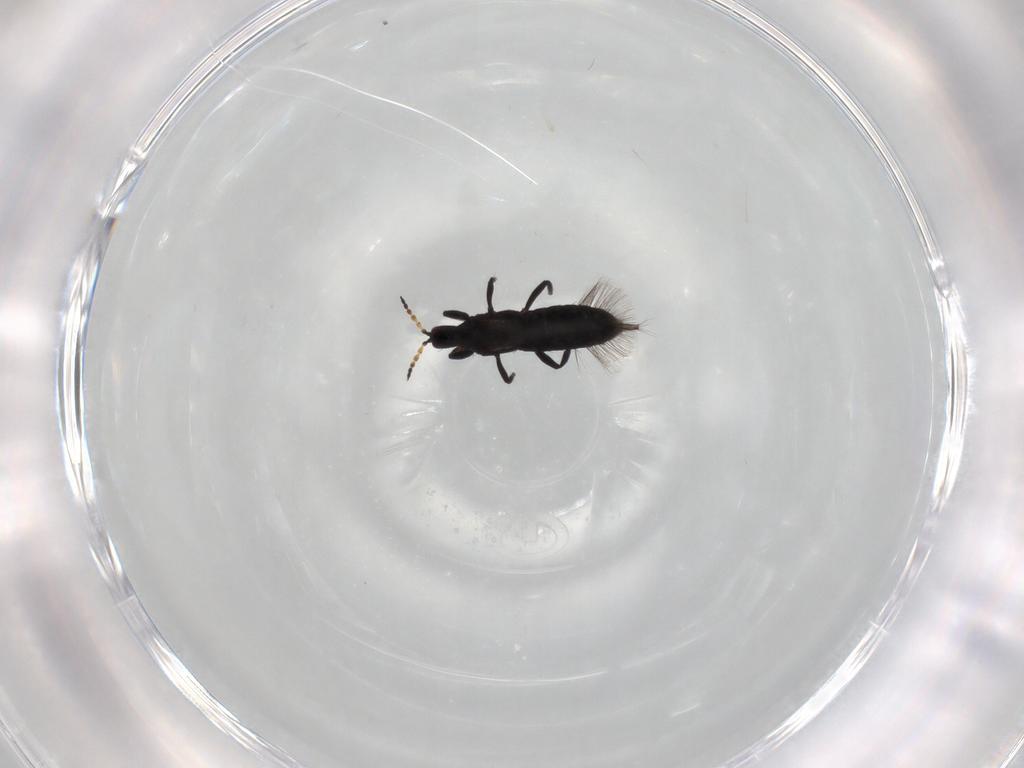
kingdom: Animalia
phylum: Arthropoda
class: Insecta
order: Thysanoptera
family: Phlaeothripidae
